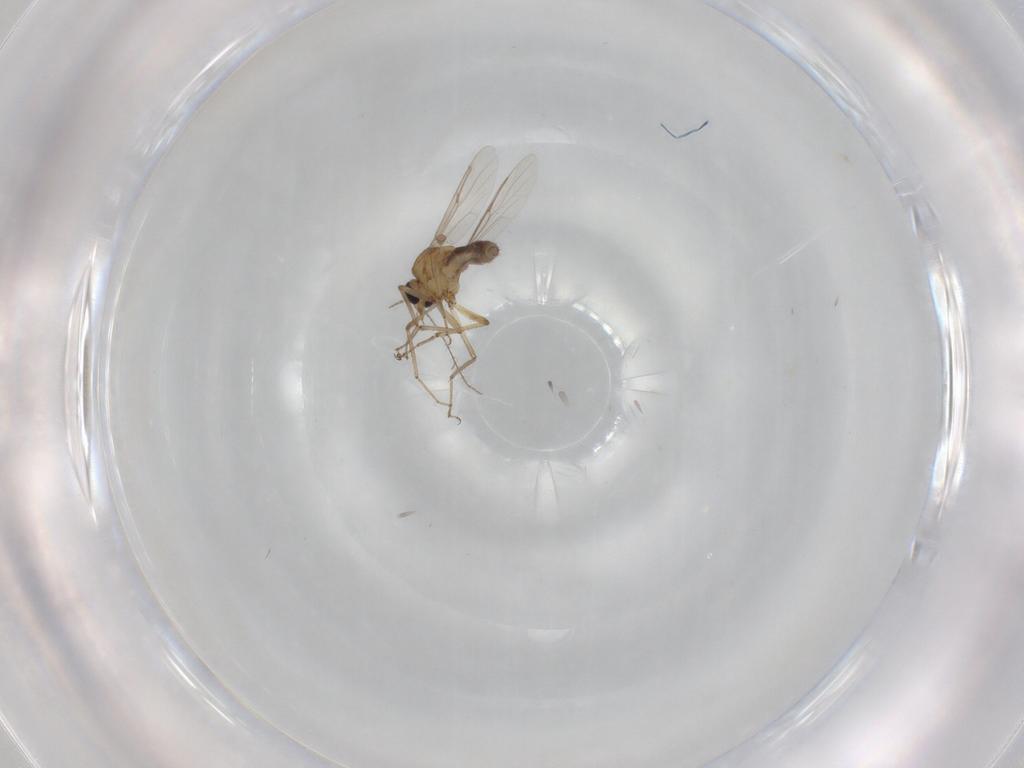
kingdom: Animalia
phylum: Arthropoda
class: Insecta
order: Diptera
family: Ceratopogonidae
